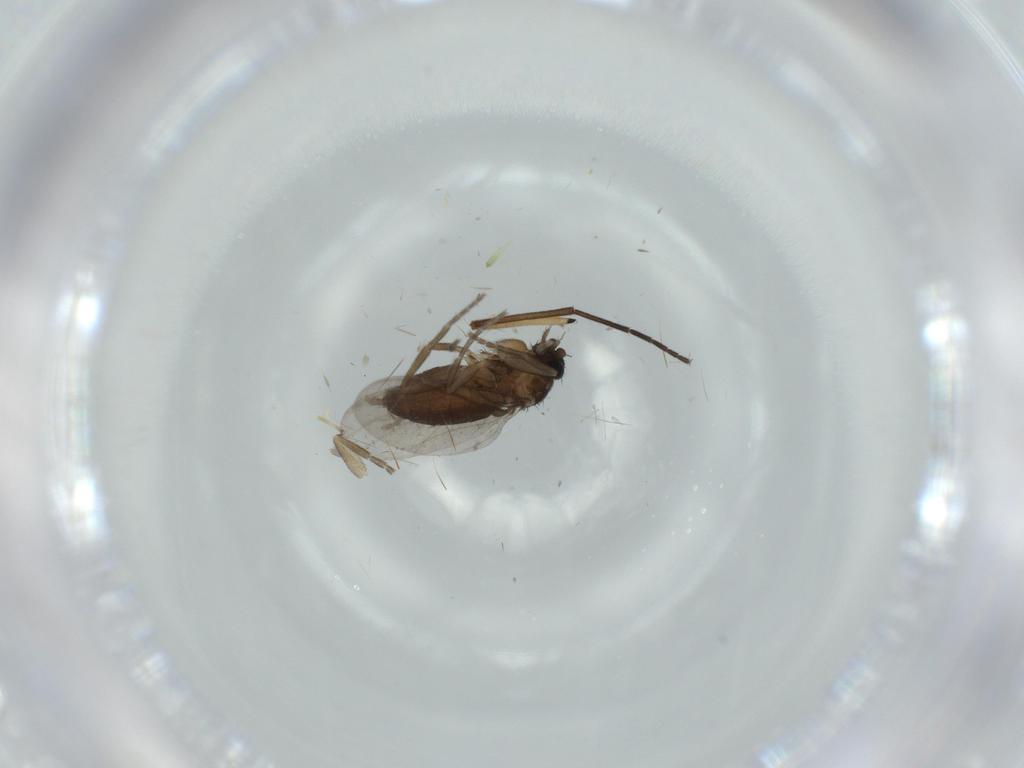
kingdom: Animalia
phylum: Arthropoda
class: Insecta
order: Diptera
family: Phoridae
